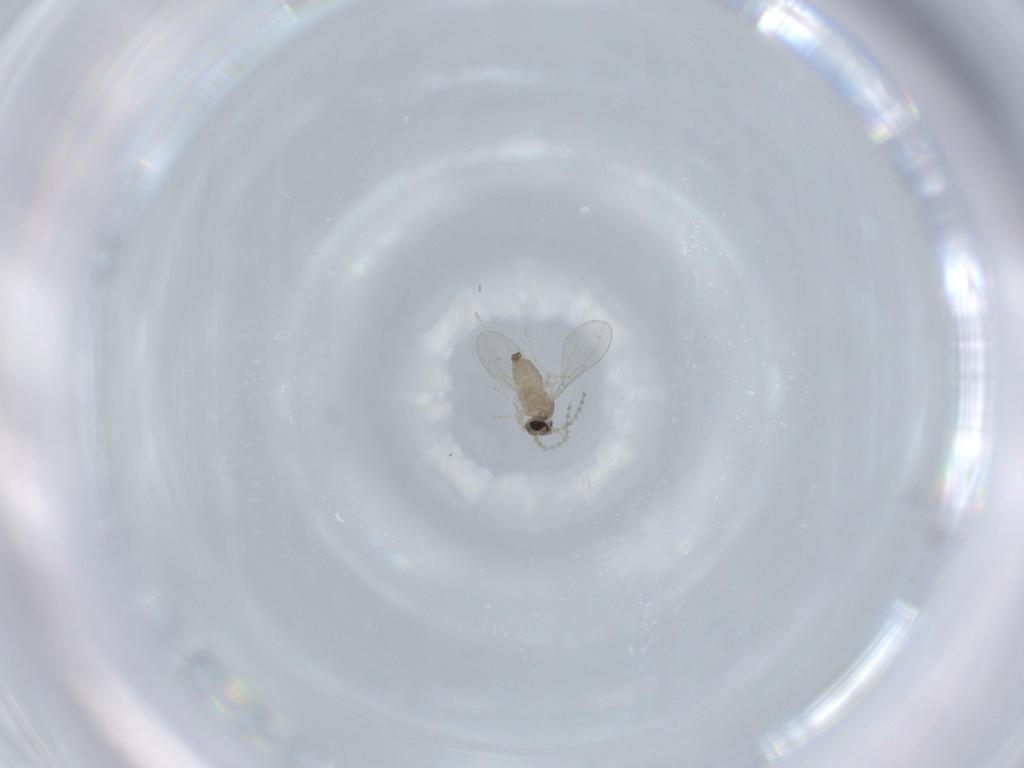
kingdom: Animalia
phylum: Arthropoda
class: Insecta
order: Diptera
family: Cecidomyiidae
